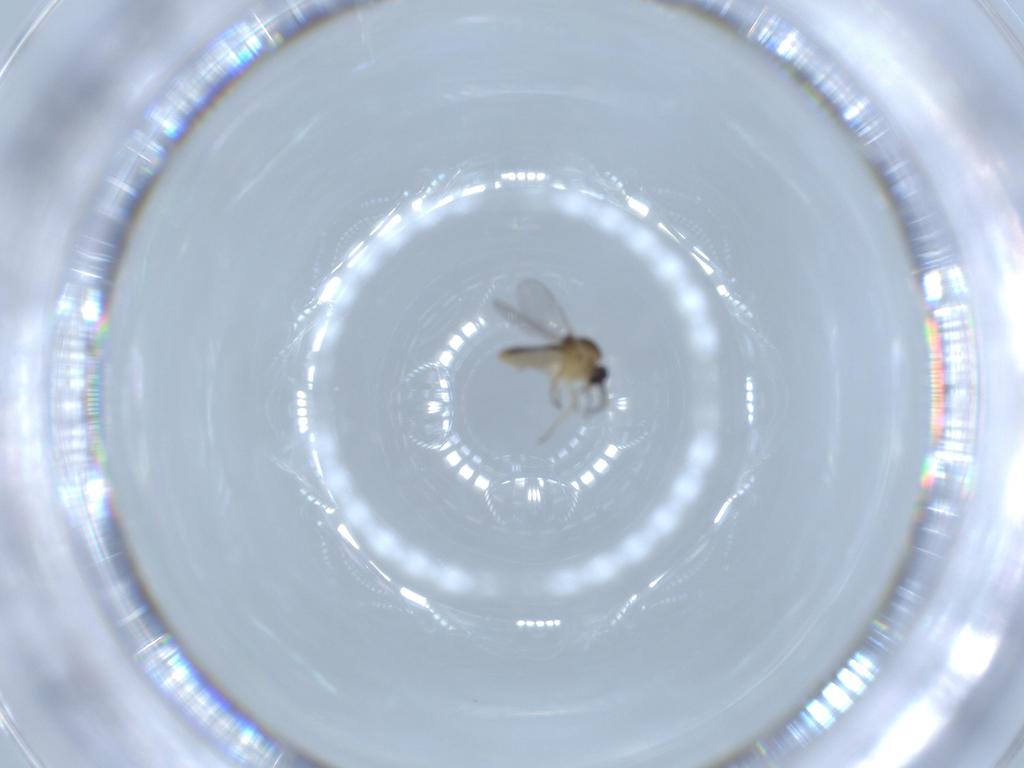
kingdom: Animalia
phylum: Arthropoda
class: Insecta
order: Diptera
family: Ceratopogonidae
